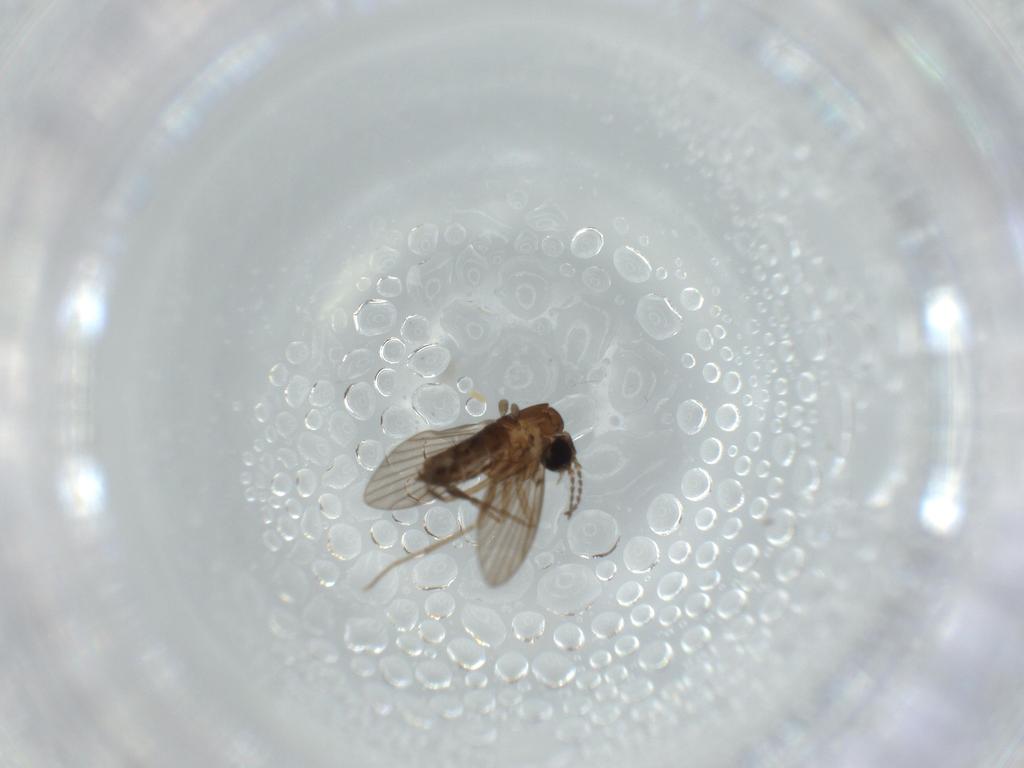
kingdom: Animalia
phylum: Arthropoda
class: Insecta
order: Diptera
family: Psychodidae
